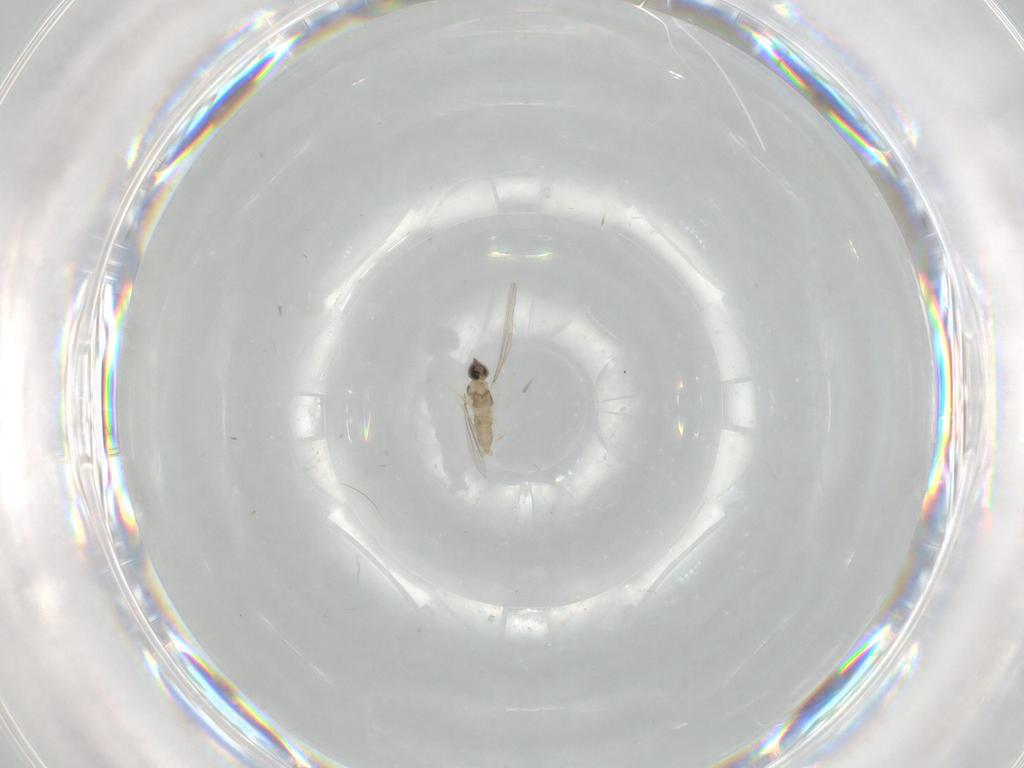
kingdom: Animalia
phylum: Arthropoda
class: Insecta
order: Diptera
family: Cecidomyiidae
